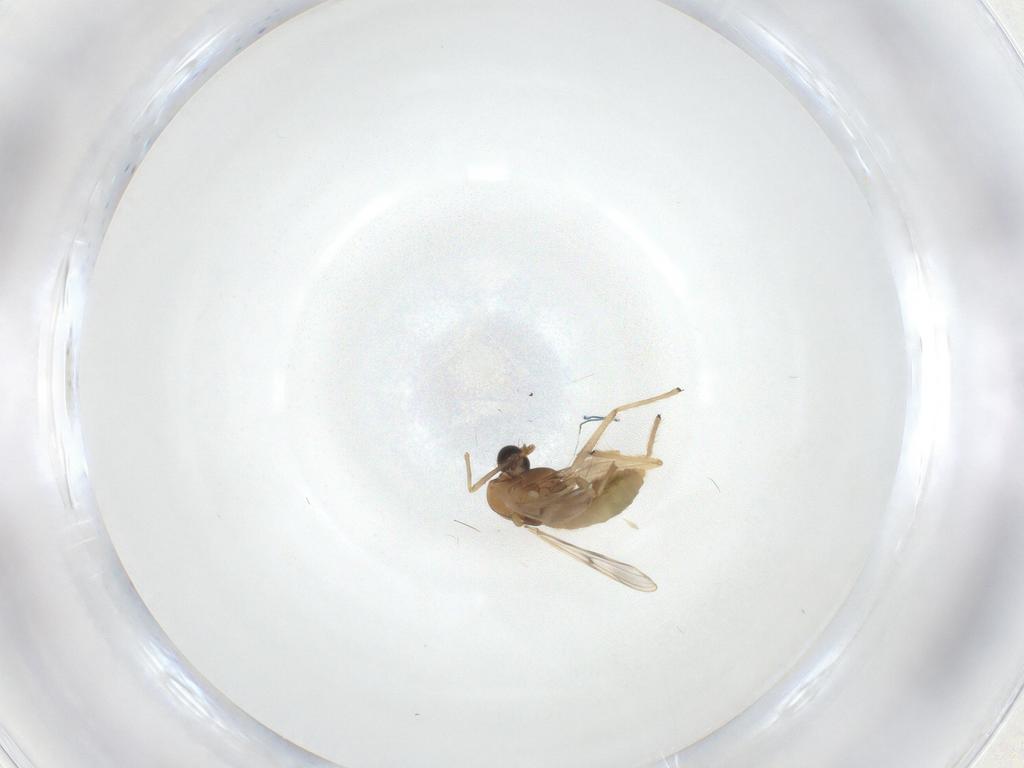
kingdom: Animalia
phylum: Arthropoda
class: Insecta
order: Diptera
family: Chironomidae
